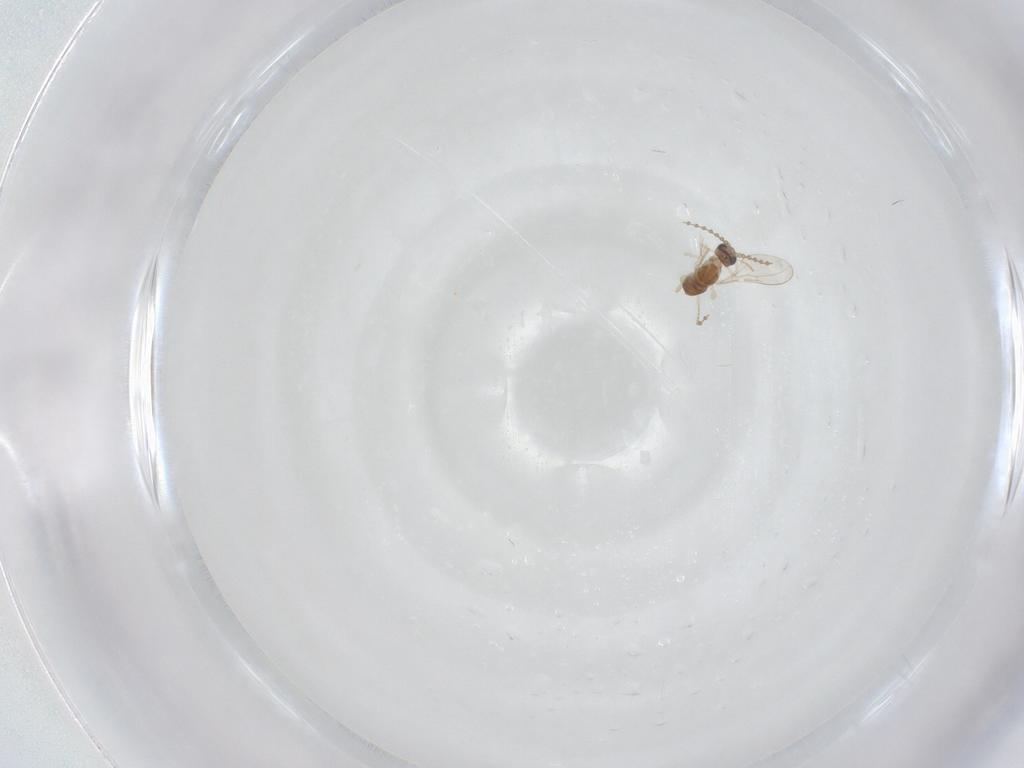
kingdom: Animalia
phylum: Arthropoda
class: Insecta
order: Diptera
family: Cecidomyiidae
